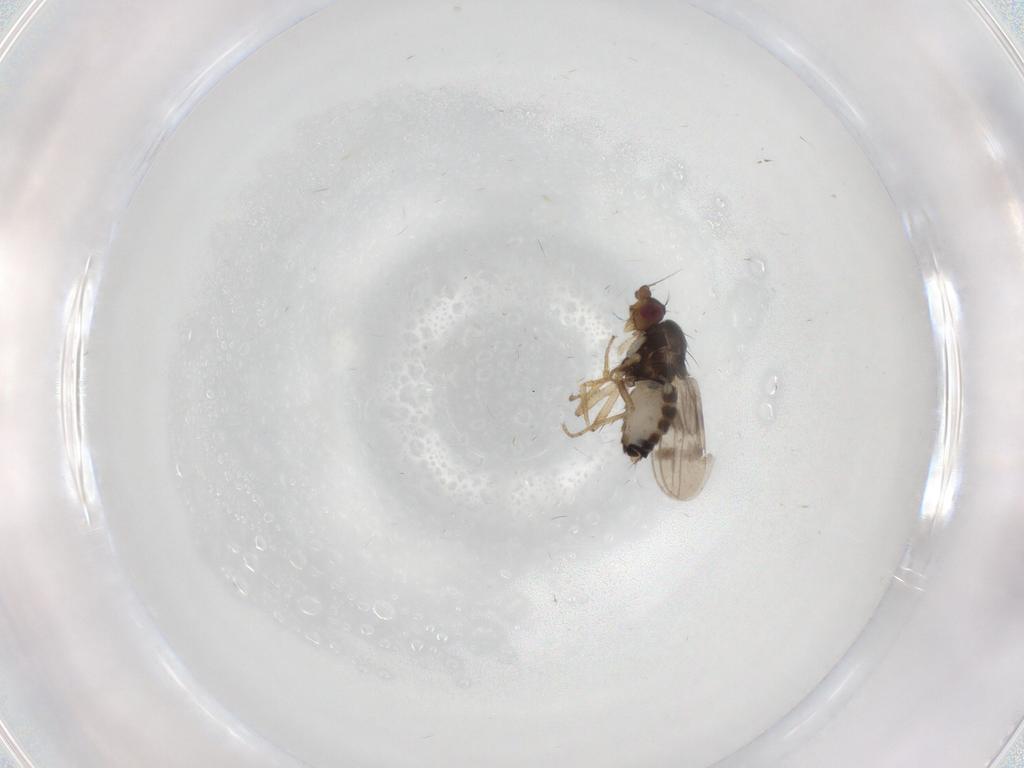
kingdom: Animalia
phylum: Arthropoda
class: Insecta
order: Diptera
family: Sphaeroceridae
